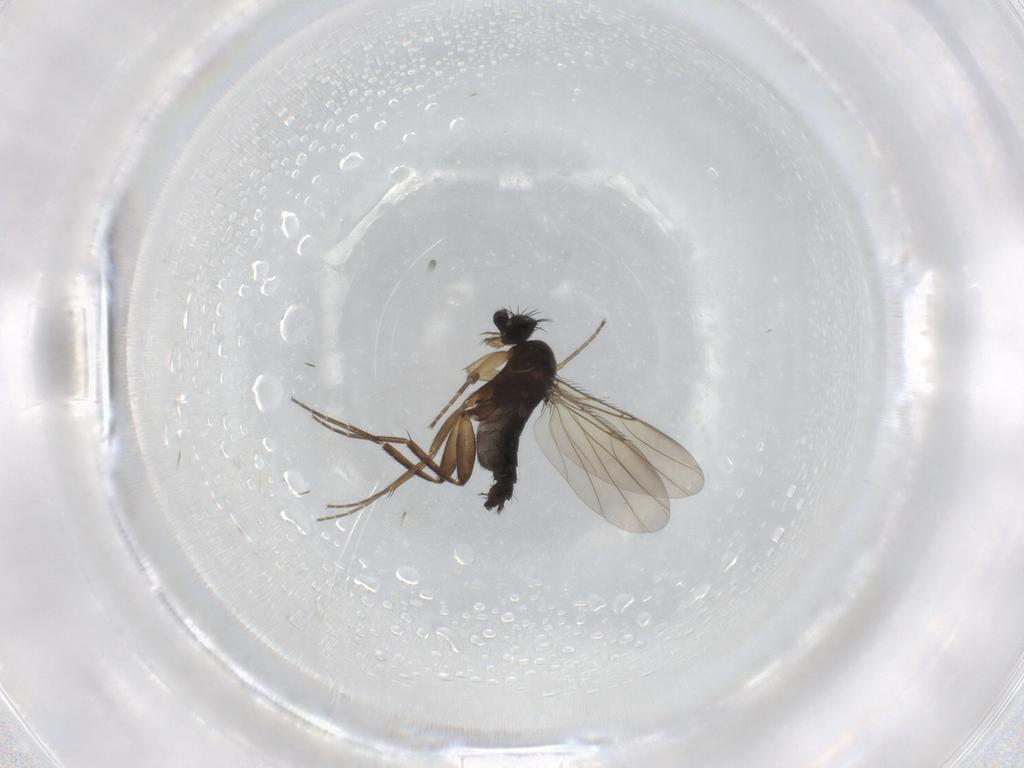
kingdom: Animalia
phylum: Arthropoda
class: Insecta
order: Diptera
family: Phoridae
